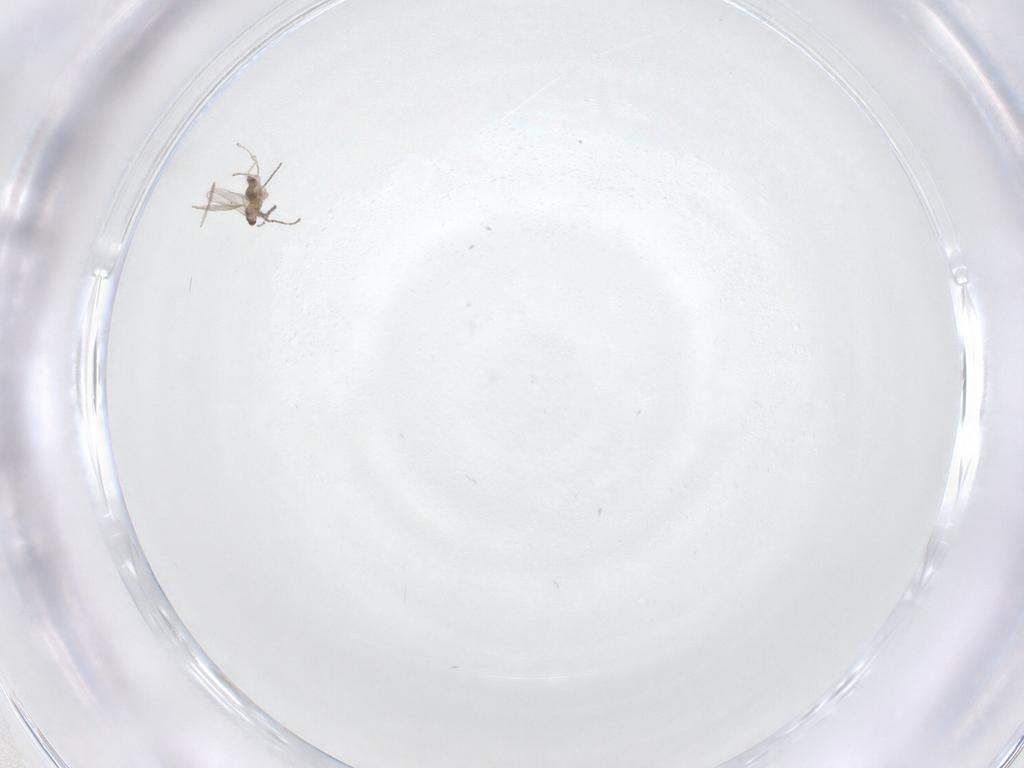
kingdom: Animalia
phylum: Arthropoda
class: Insecta
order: Diptera
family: Cecidomyiidae
